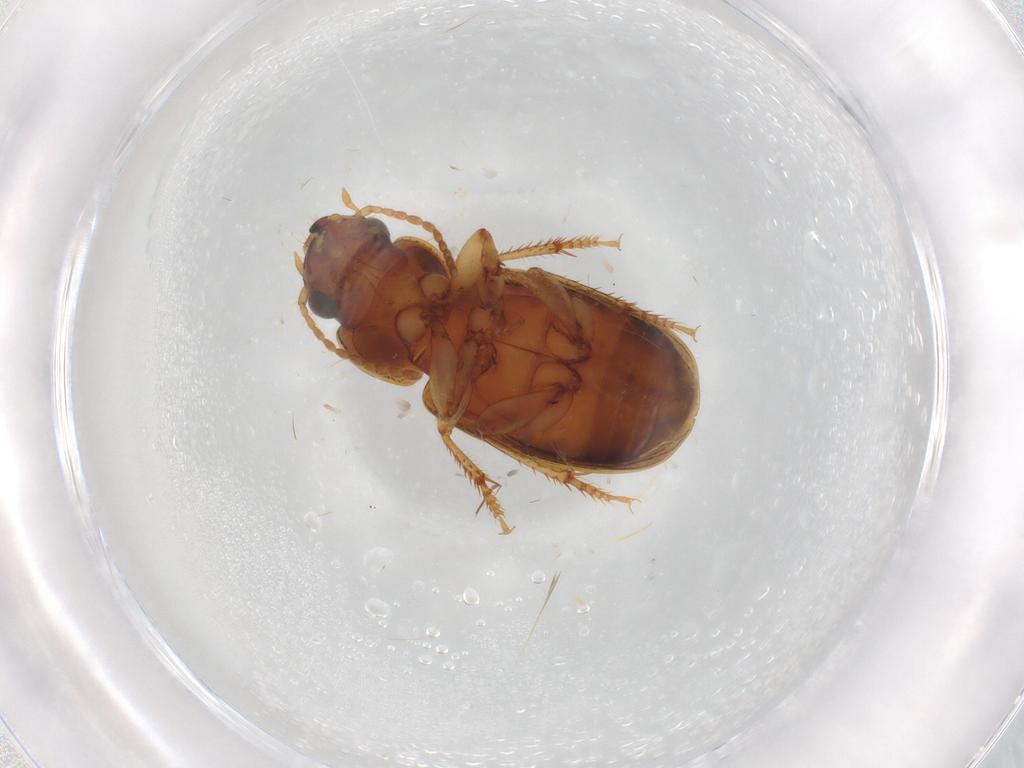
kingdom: Animalia
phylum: Arthropoda
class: Insecta
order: Coleoptera
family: Carabidae
